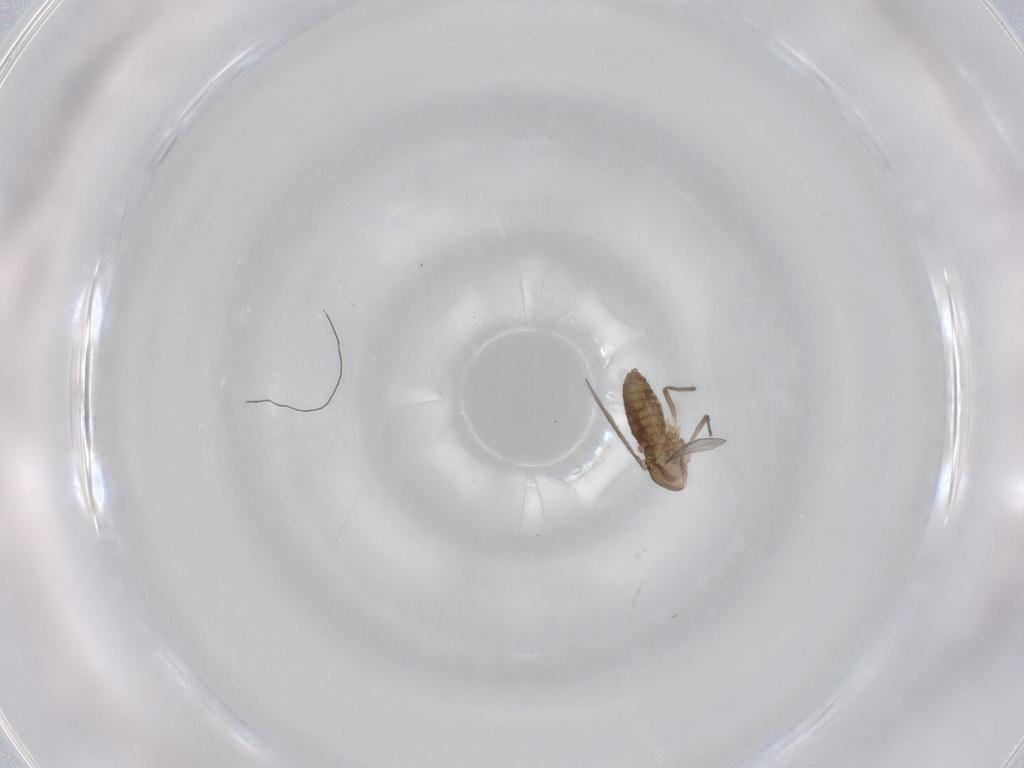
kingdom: Animalia
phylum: Arthropoda
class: Insecta
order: Diptera
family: Chironomidae
